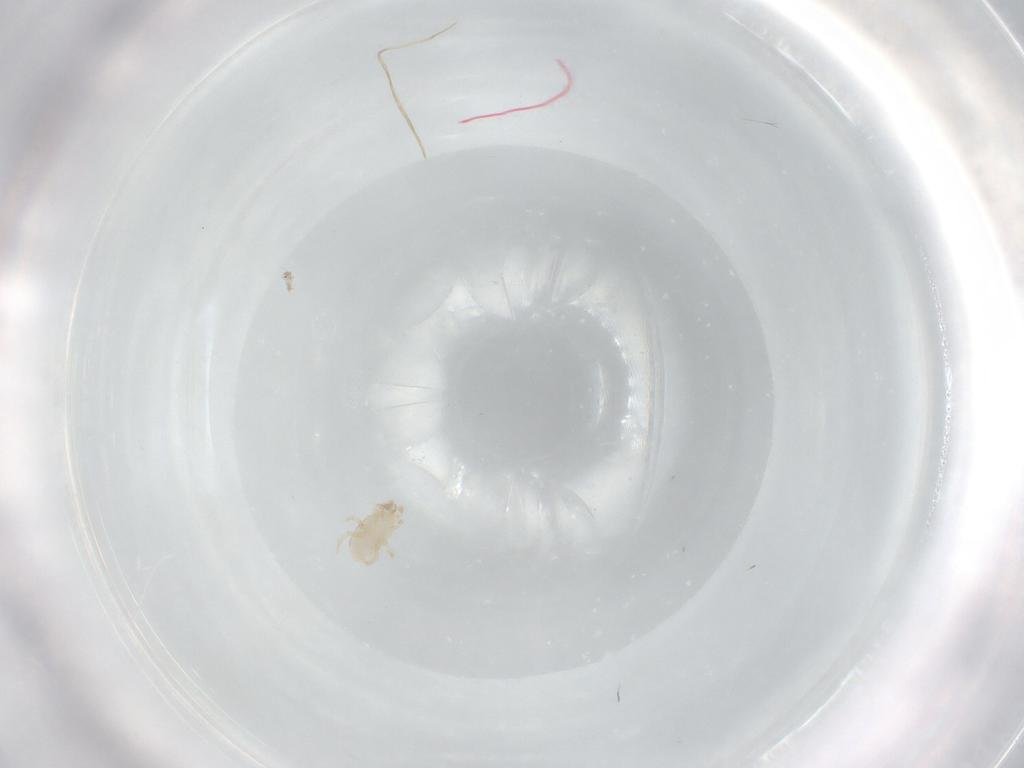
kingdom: Animalia
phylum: Arthropoda
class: Arachnida
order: Mesostigmata
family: Melicharidae
